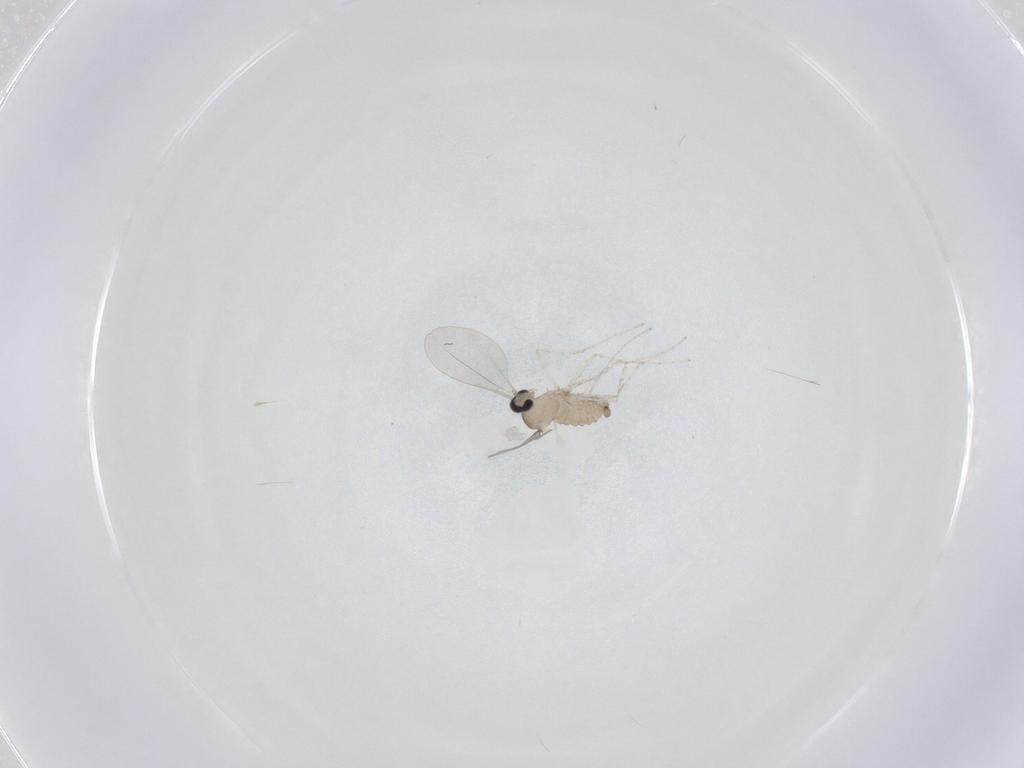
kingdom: Animalia
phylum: Arthropoda
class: Insecta
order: Diptera
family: Cecidomyiidae
